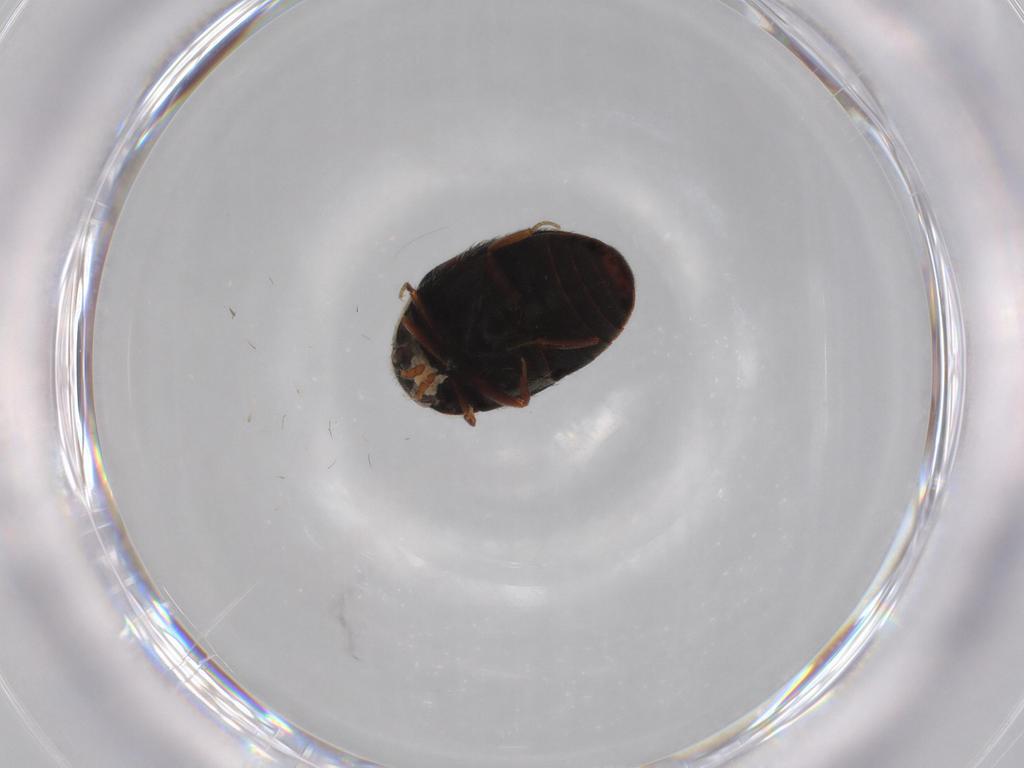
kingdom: Animalia
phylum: Arthropoda
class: Insecta
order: Coleoptera
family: Dermestidae
